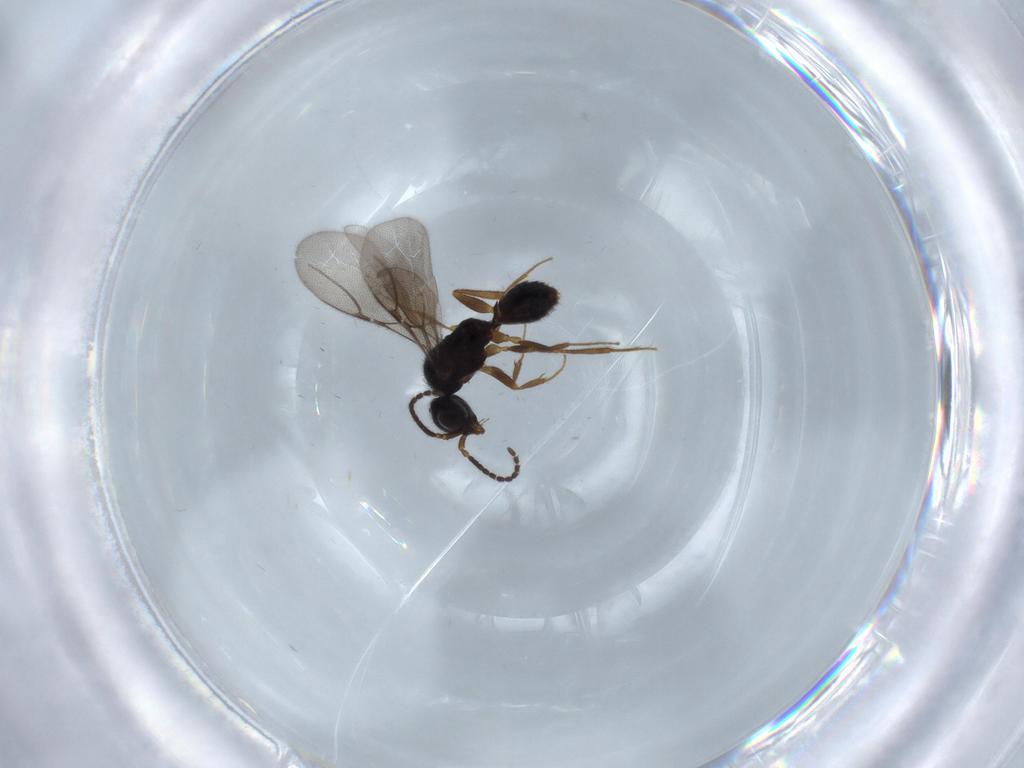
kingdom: Animalia
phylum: Arthropoda
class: Insecta
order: Hymenoptera
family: Bethylidae
